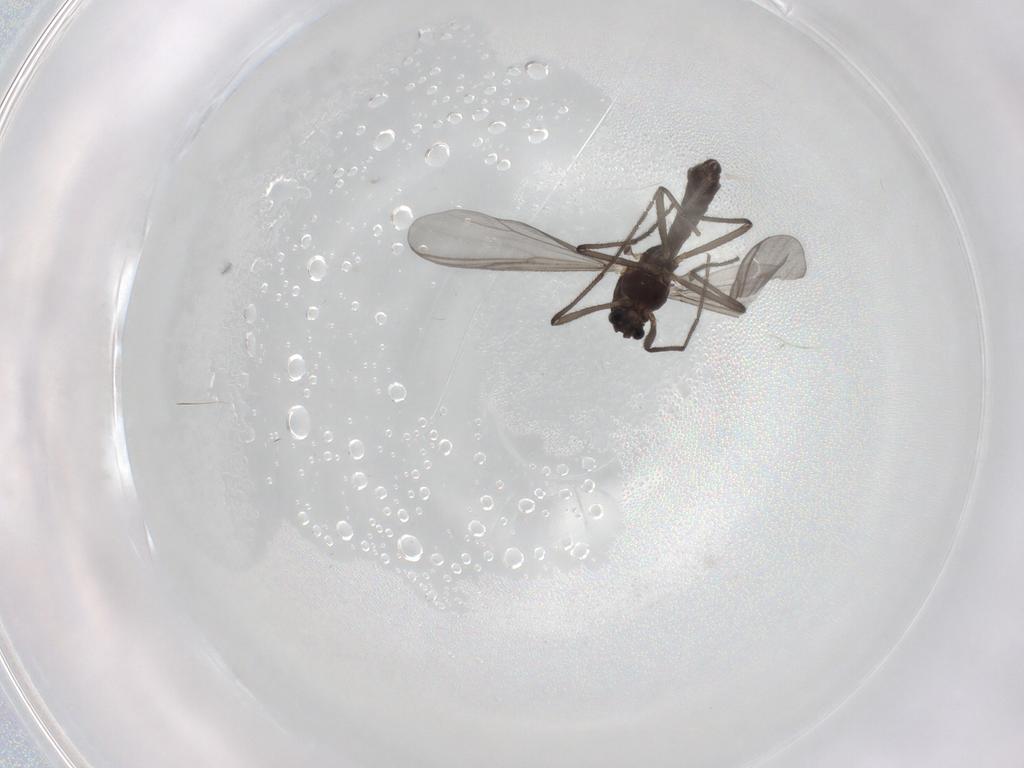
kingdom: Animalia
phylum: Arthropoda
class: Insecta
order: Diptera
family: Chironomidae
